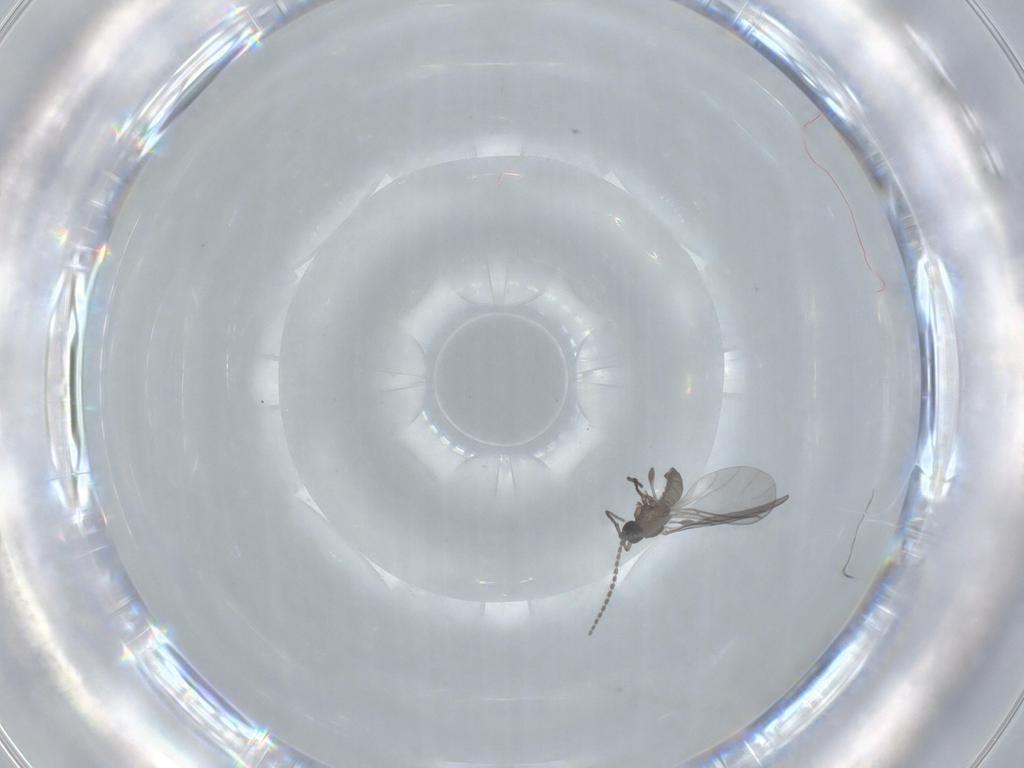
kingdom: Animalia
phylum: Arthropoda
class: Insecta
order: Diptera
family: Sciaridae
